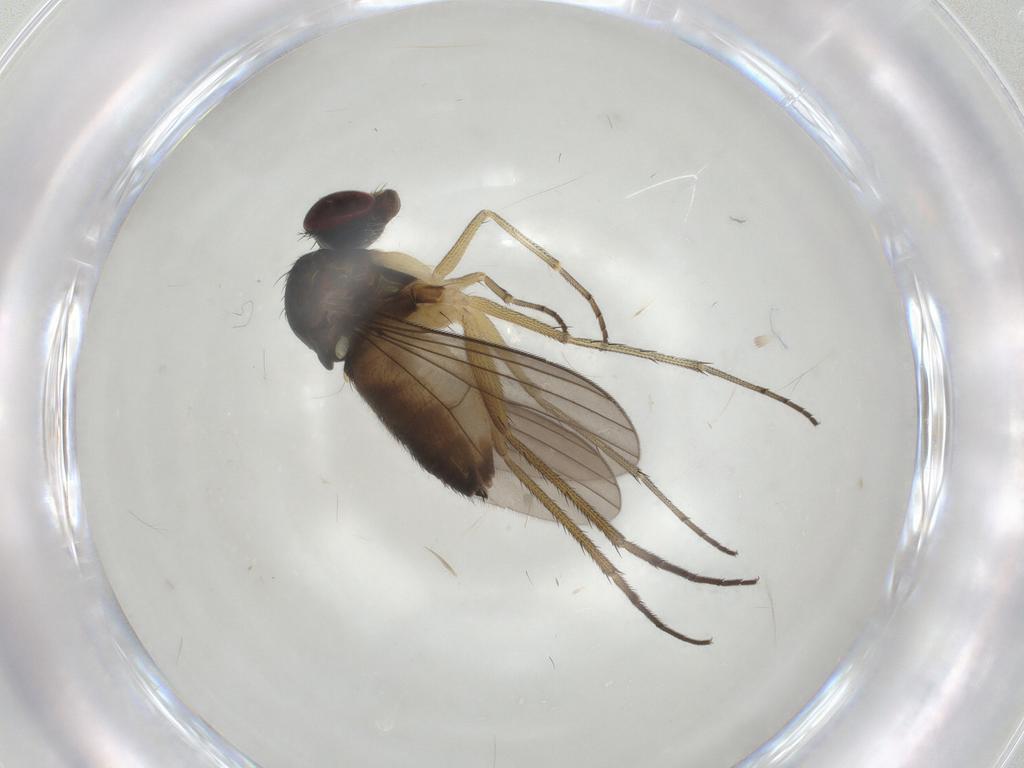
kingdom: Animalia
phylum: Arthropoda
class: Insecta
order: Diptera
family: Dolichopodidae
